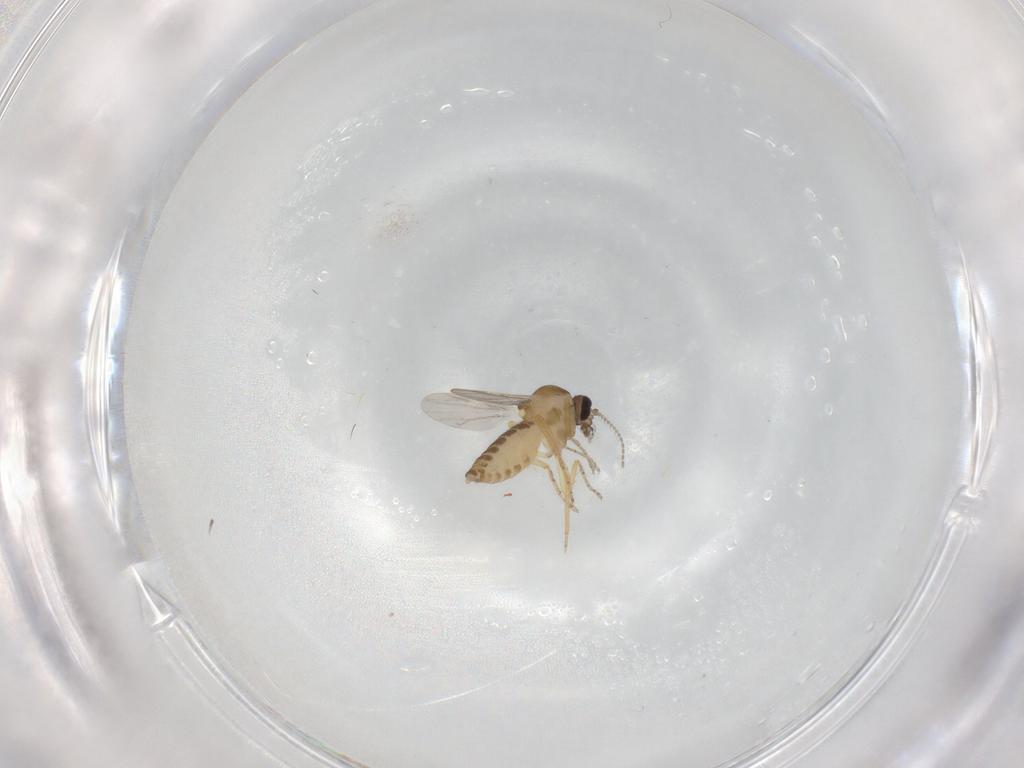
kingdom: Animalia
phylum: Arthropoda
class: Insecta
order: Diptera
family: Ceratopogonidae
